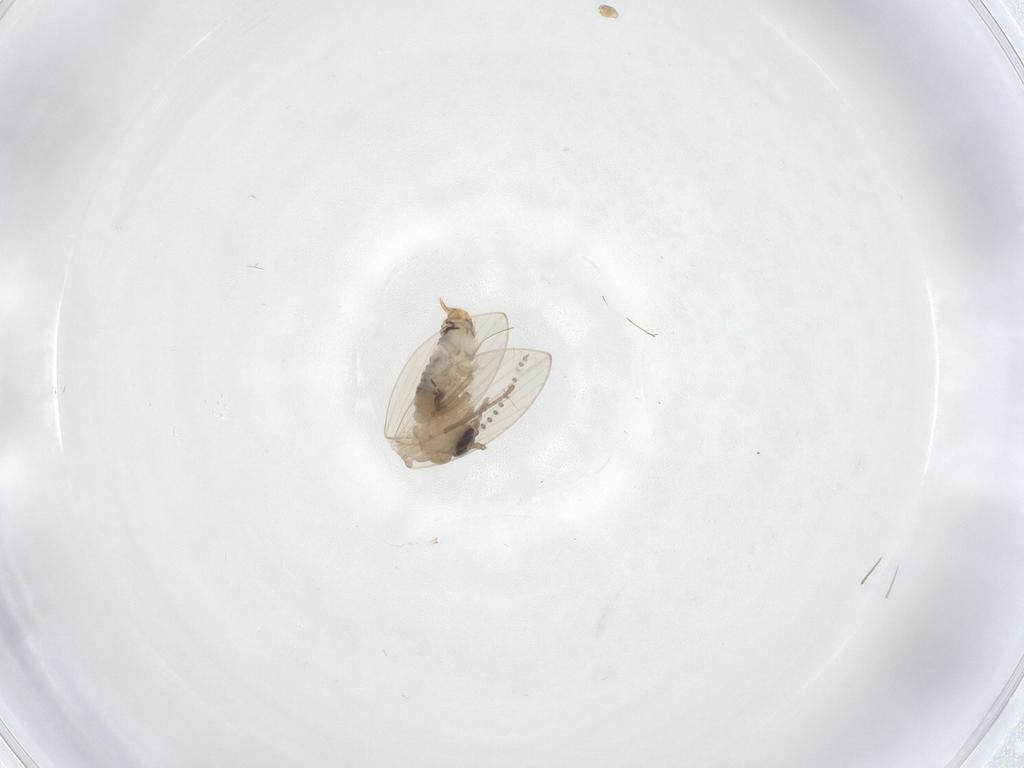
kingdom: Animalia
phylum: Arthropoda
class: Insecta
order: Diptera
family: Psychodidae
